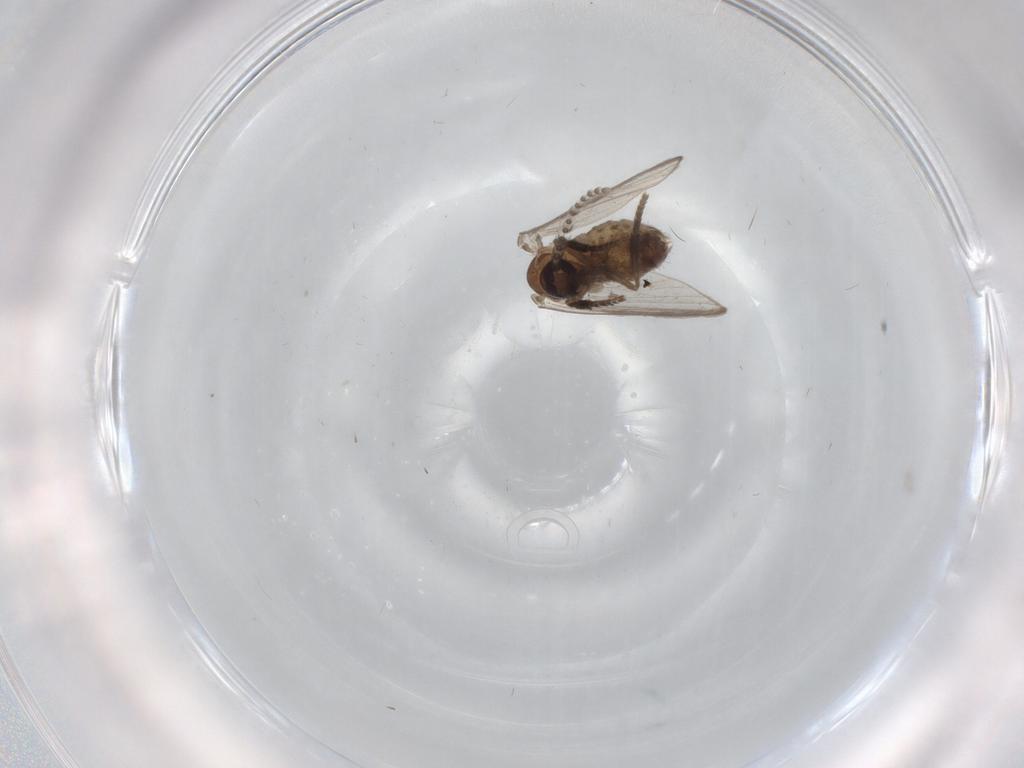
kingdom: Animalia
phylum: Arthropoda
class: Insecta
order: Diptera
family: Psychodidae
